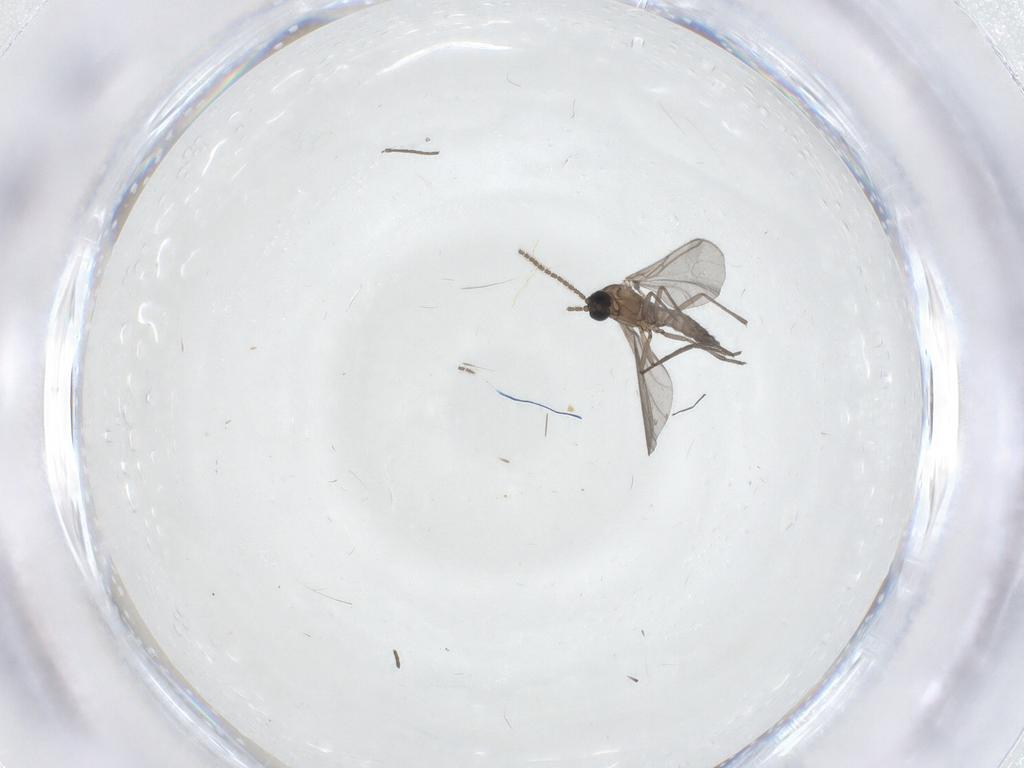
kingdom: Animalia
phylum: Arthropoda
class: Insecta
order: Diptera
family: Sciaridae
